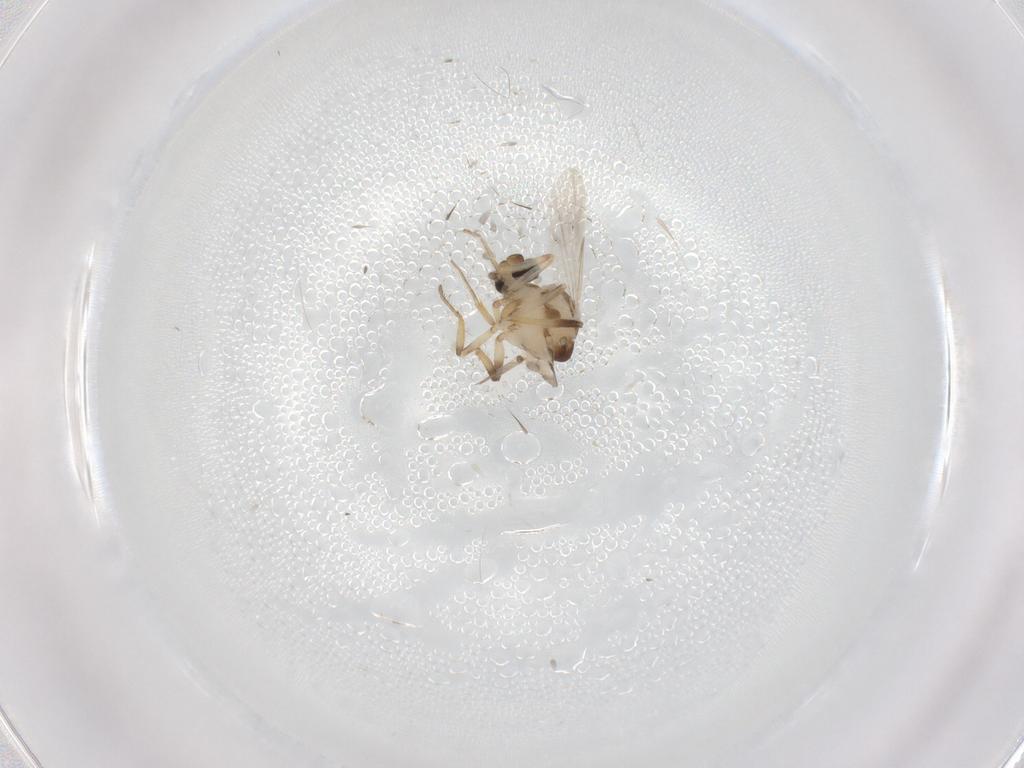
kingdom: Animalia
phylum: Arthropoda
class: Insecta
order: Diptera
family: Ceratopogonidae
